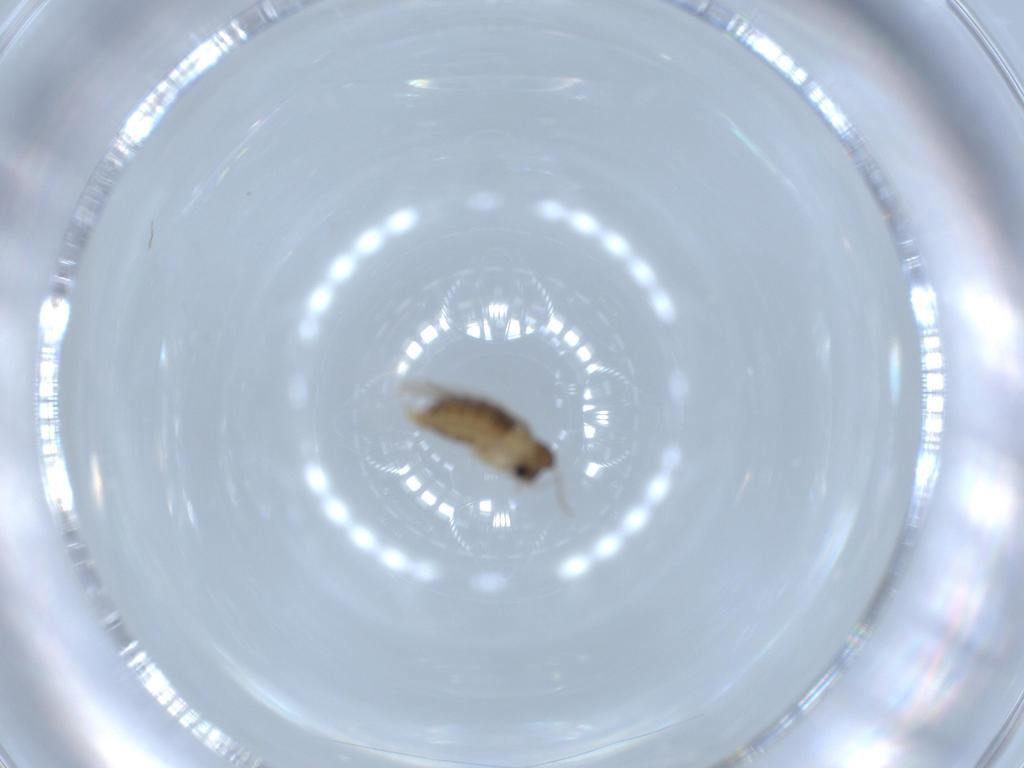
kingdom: Animalia
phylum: Arthropoda
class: Insecta
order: Diptera
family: Psychodidae
